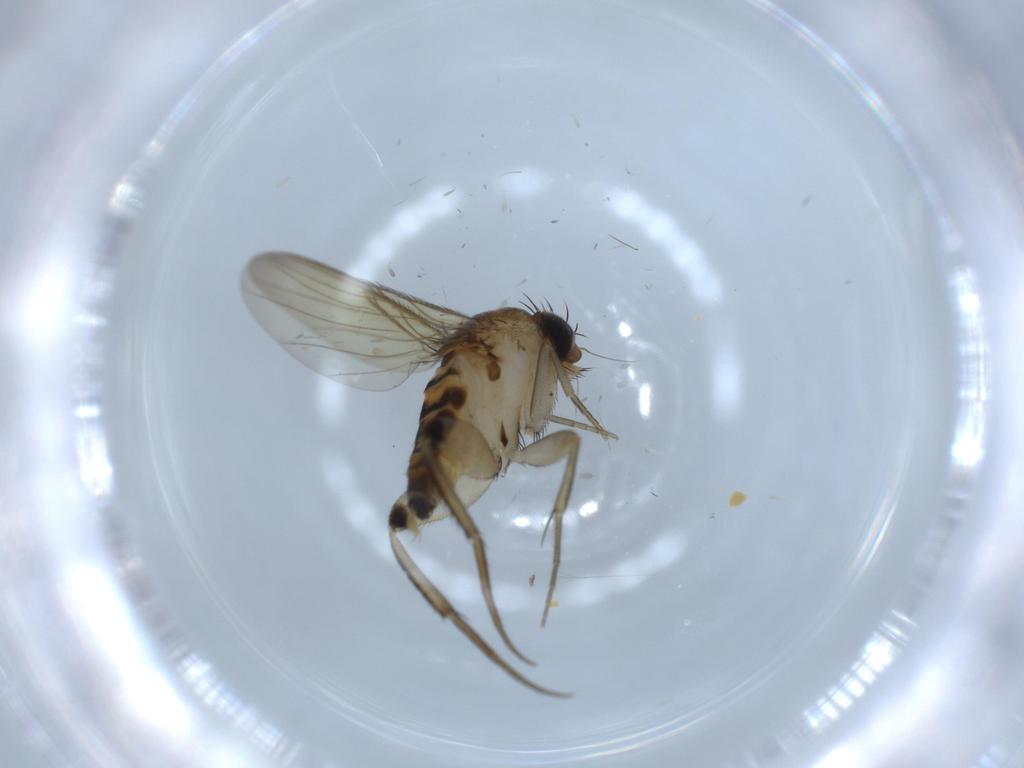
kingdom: Animalia
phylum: Arthropoda
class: Insecta
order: Diptera
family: Phoridae
